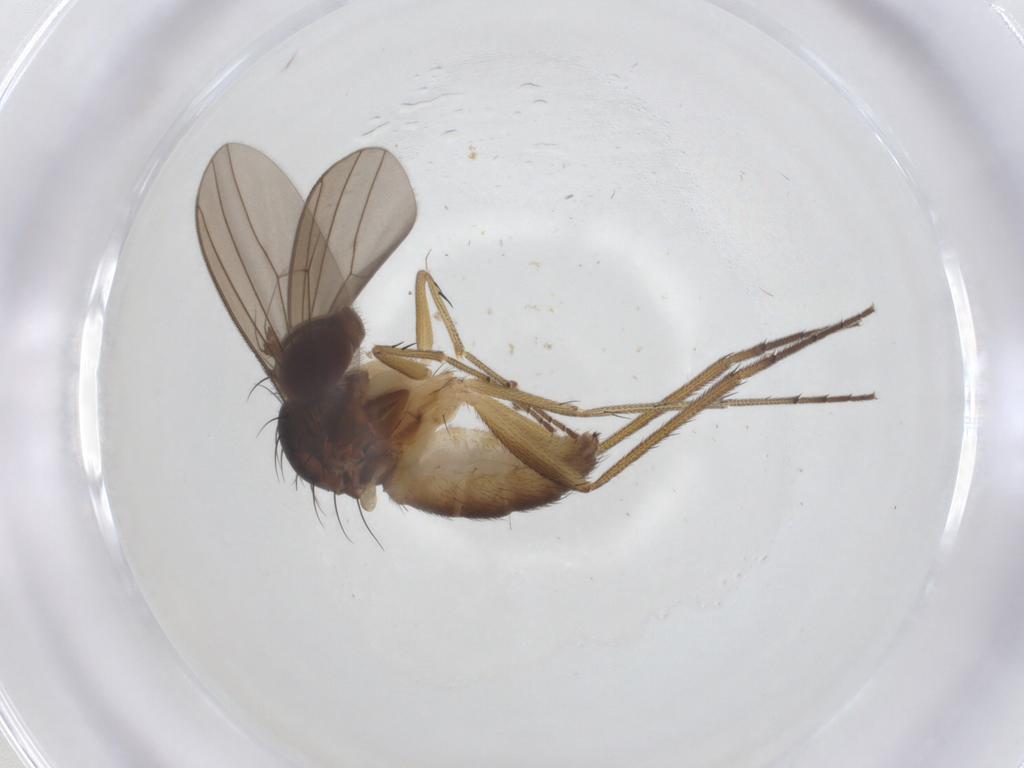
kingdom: Animalia
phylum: Arthropoda
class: Insecta
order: Diptera
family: Dolichopodidae
